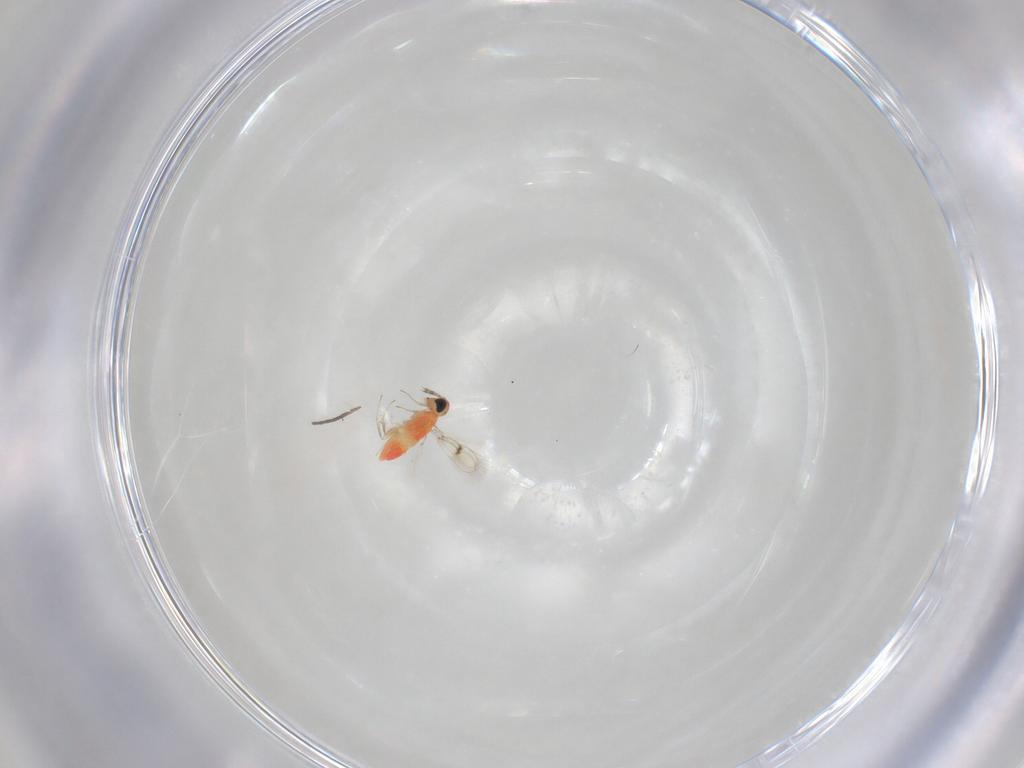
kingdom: Animalia
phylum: Arthropoda
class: Insecta
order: Hymenoptera
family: Trichogrammatidae
